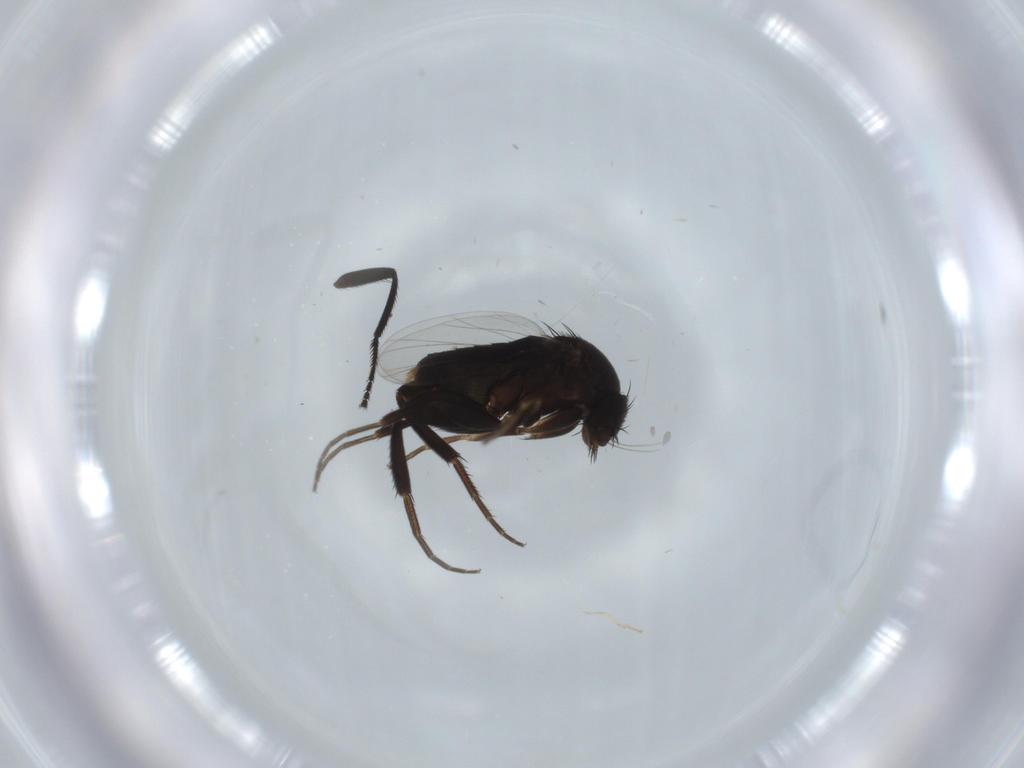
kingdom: Animalia
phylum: Arthropoda
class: Insecta
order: Diptera
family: Phoridae
